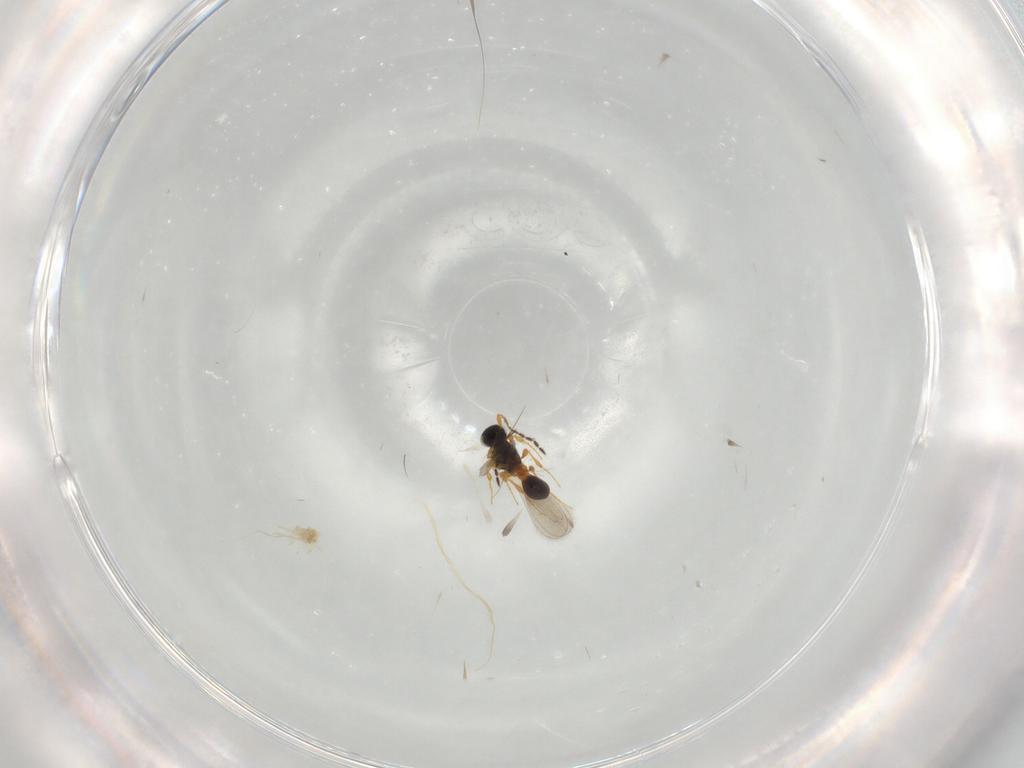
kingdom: Animalia
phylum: Arthropoda
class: Insecta
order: Hymenoptera
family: Platygastridae
